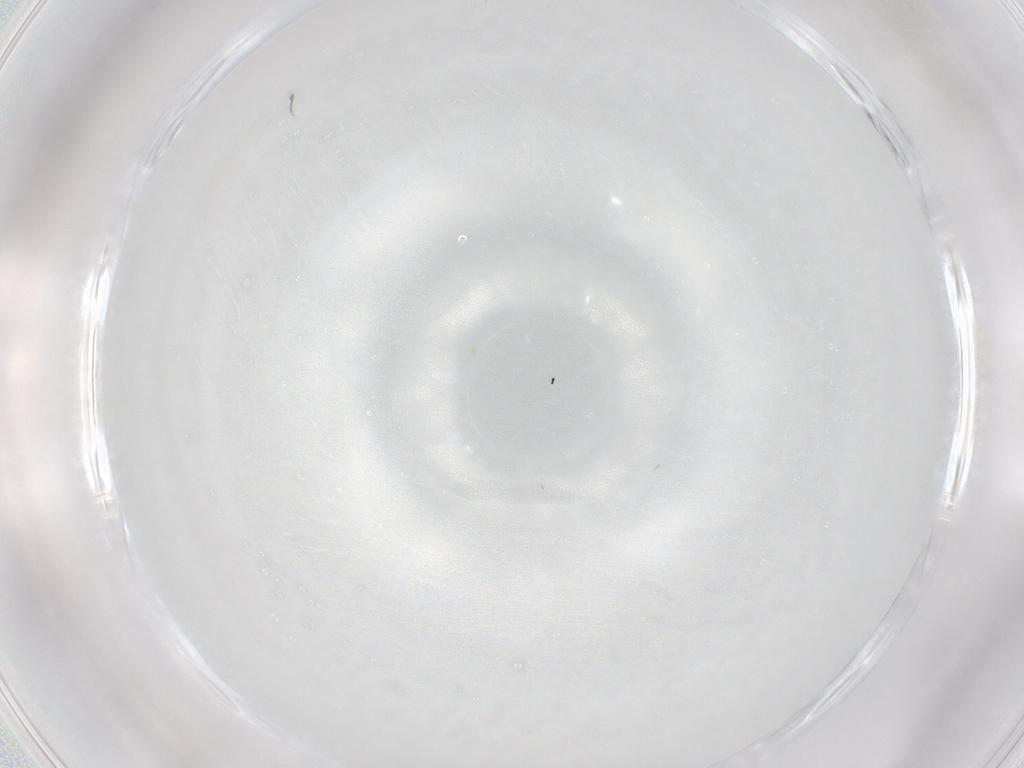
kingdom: Animalia
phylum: Arthropoda
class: Insecta
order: Hymenoptera
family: Mymaridae
